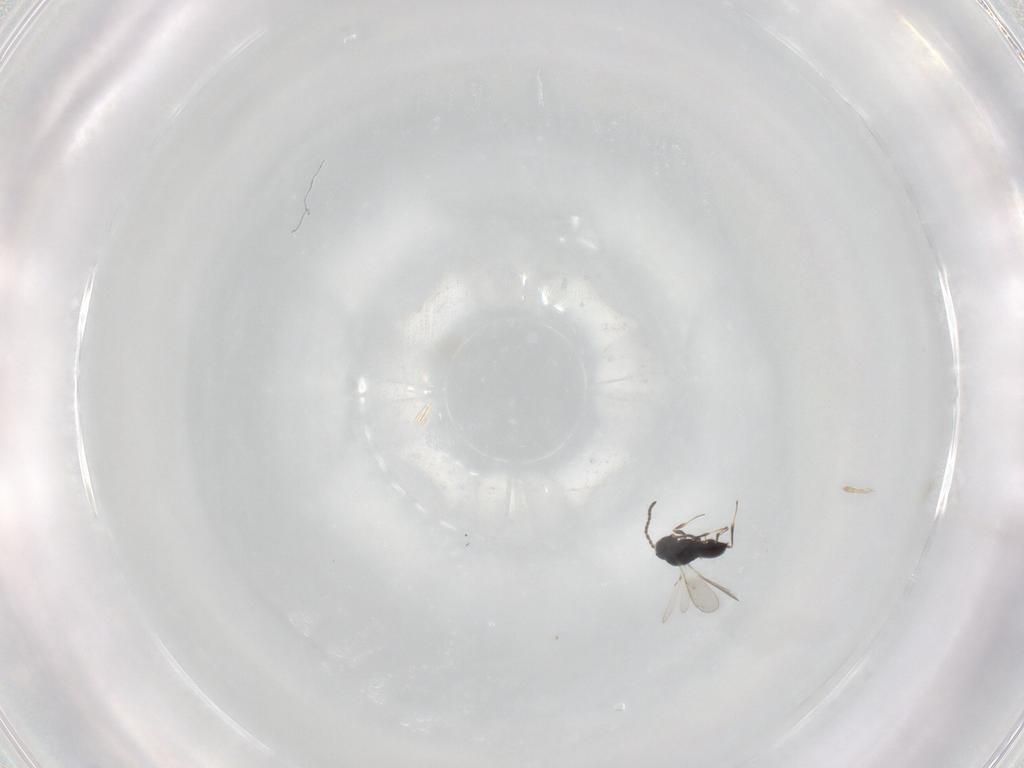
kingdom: Animalia
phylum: Arthropoda
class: Insecta
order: Hymenoptera
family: Scelionidae
